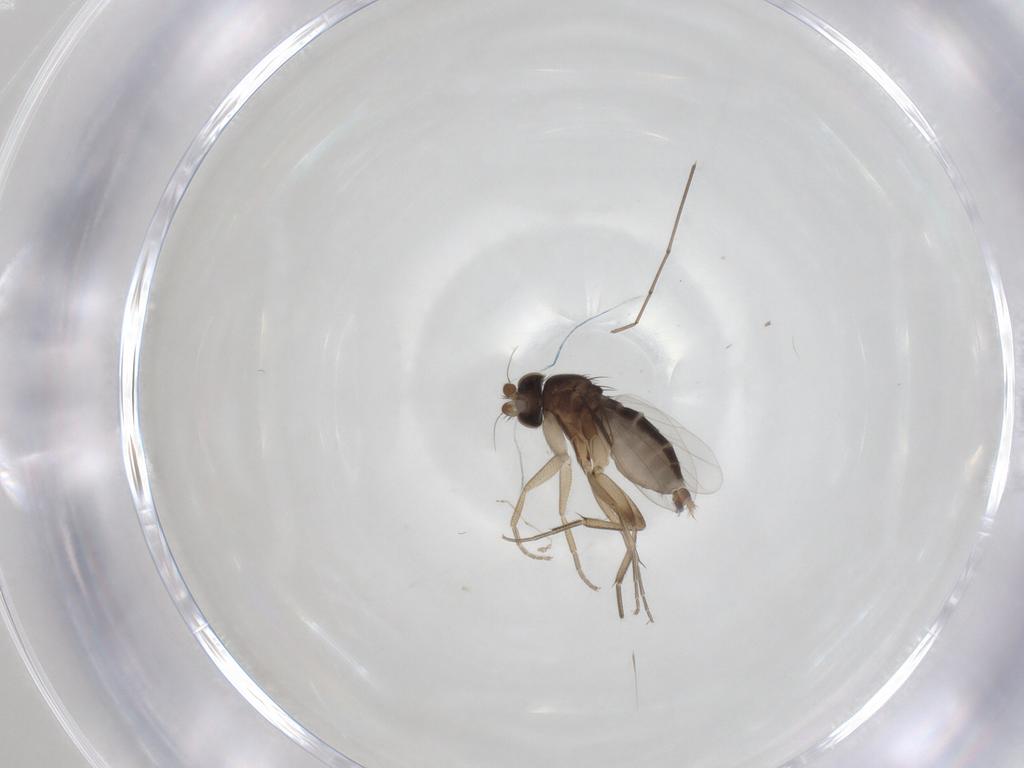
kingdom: Animalia
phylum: Arthropoda
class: Insecta
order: Diptera
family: Phoridae
